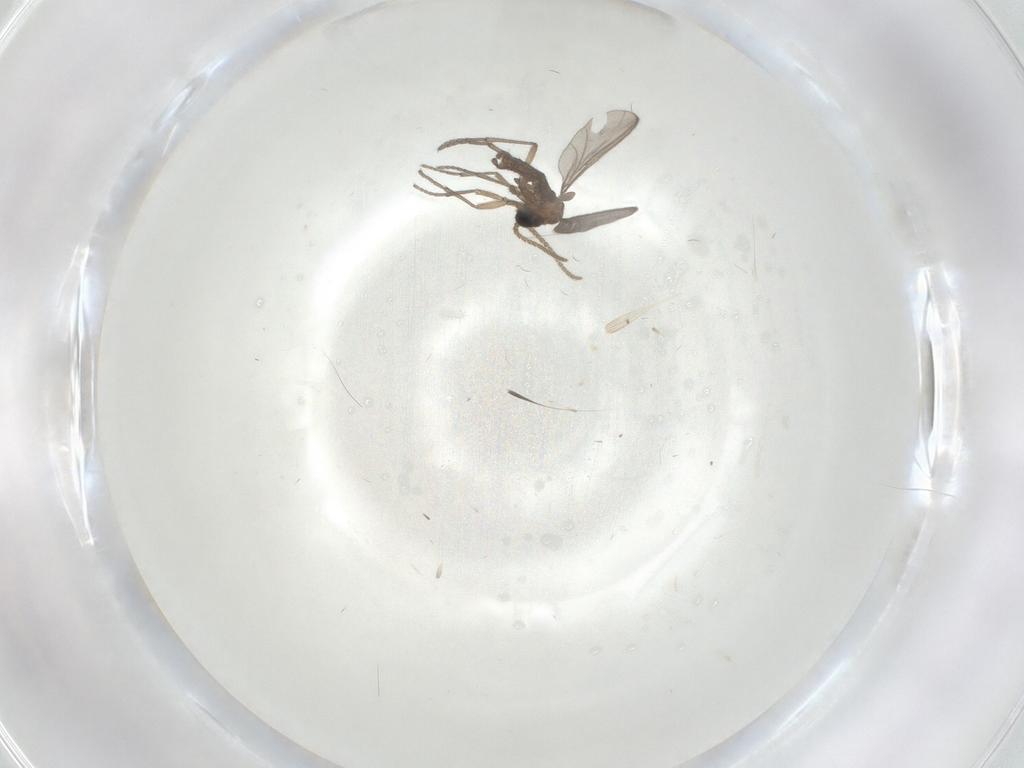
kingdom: Animalia
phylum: Arthropoda
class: Insecta
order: Diptera
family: Sciaridae
